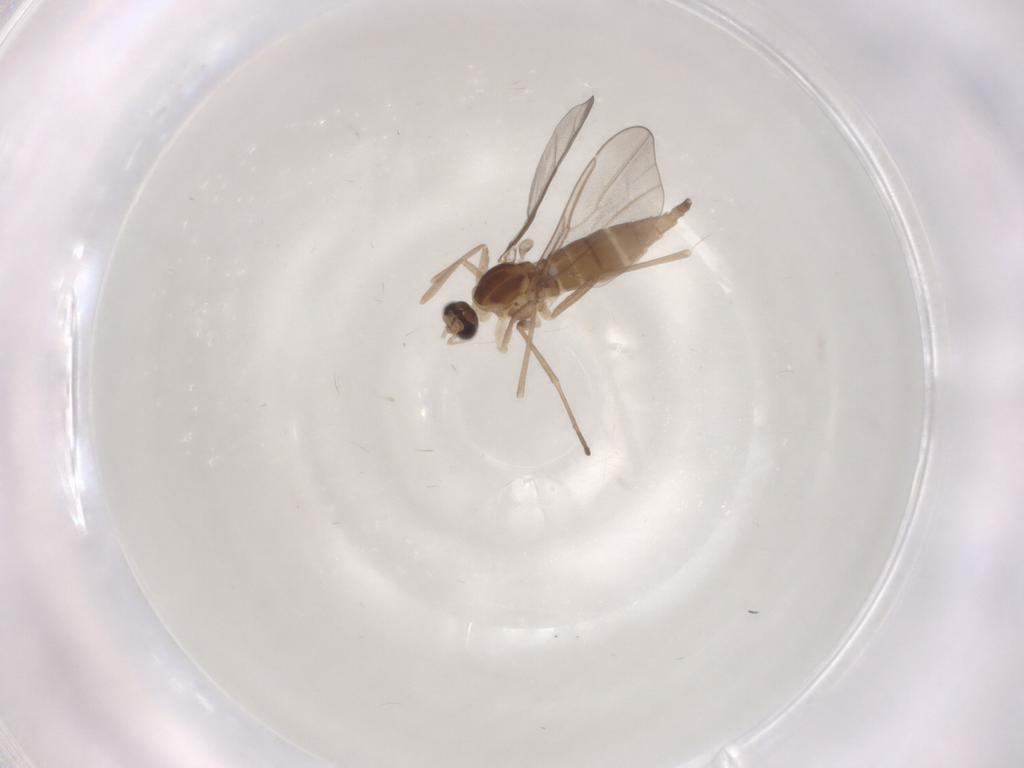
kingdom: Animalia
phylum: Arthropoda
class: Insecta
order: Diptera
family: Cecidomyiidae
